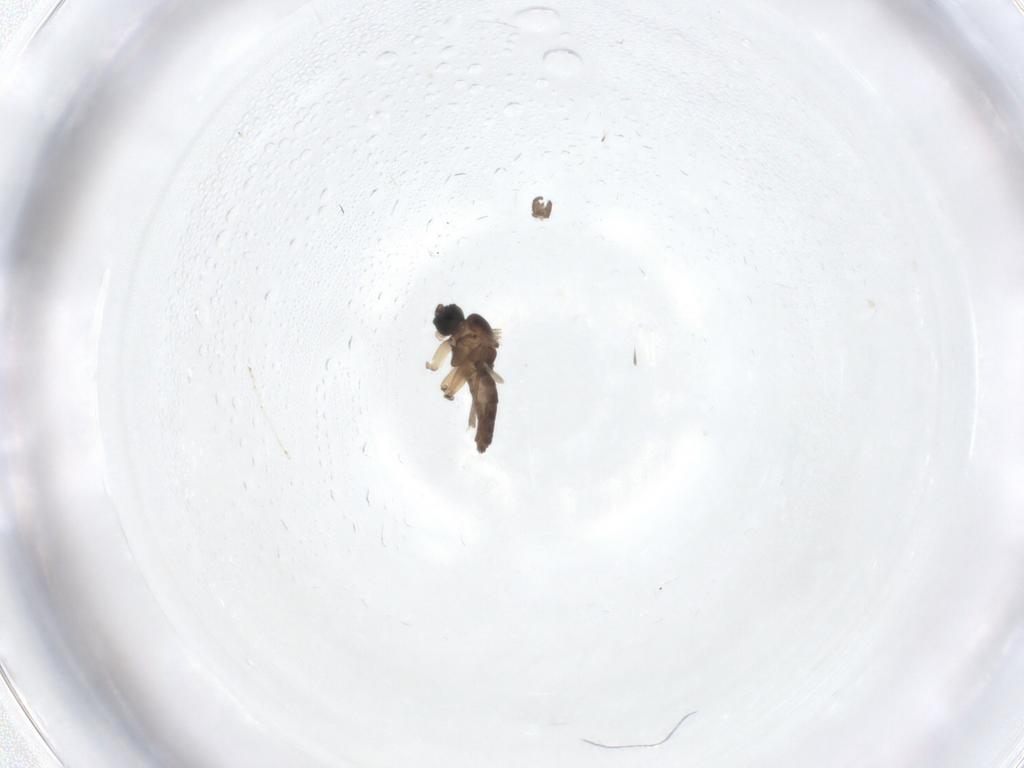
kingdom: Animalia
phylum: Arthropoda
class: Insecta
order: Diptera
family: Sciaridae
